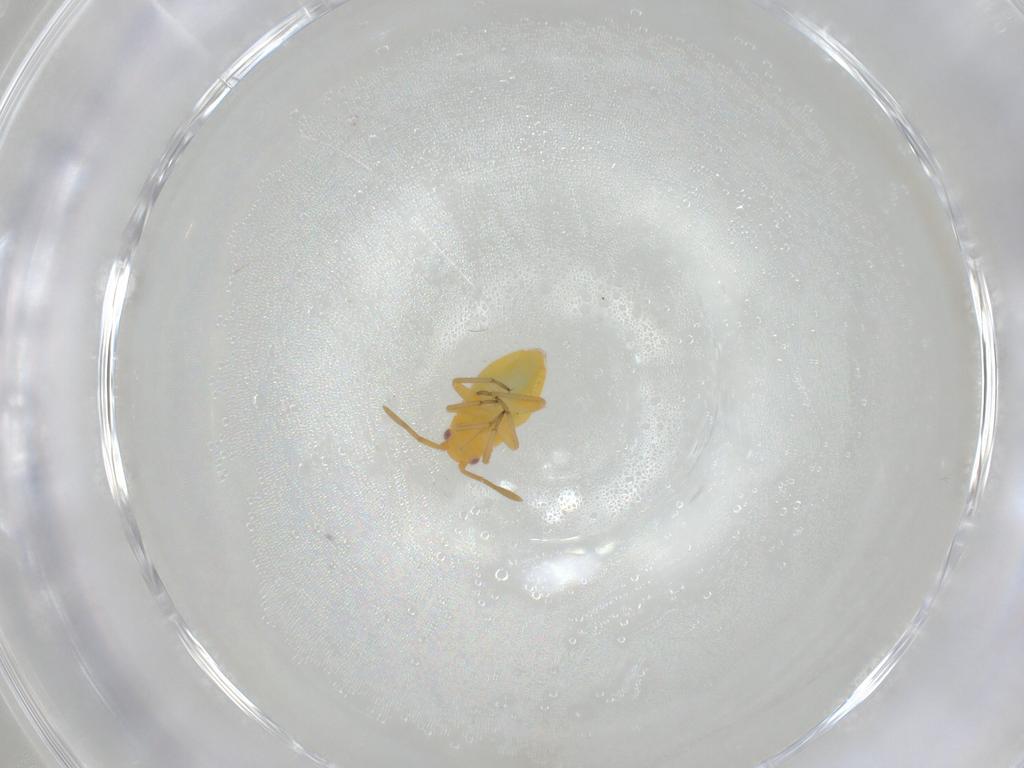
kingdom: Animalia
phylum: Arthropoda
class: Insecta
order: Hemiptera
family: Miridae
